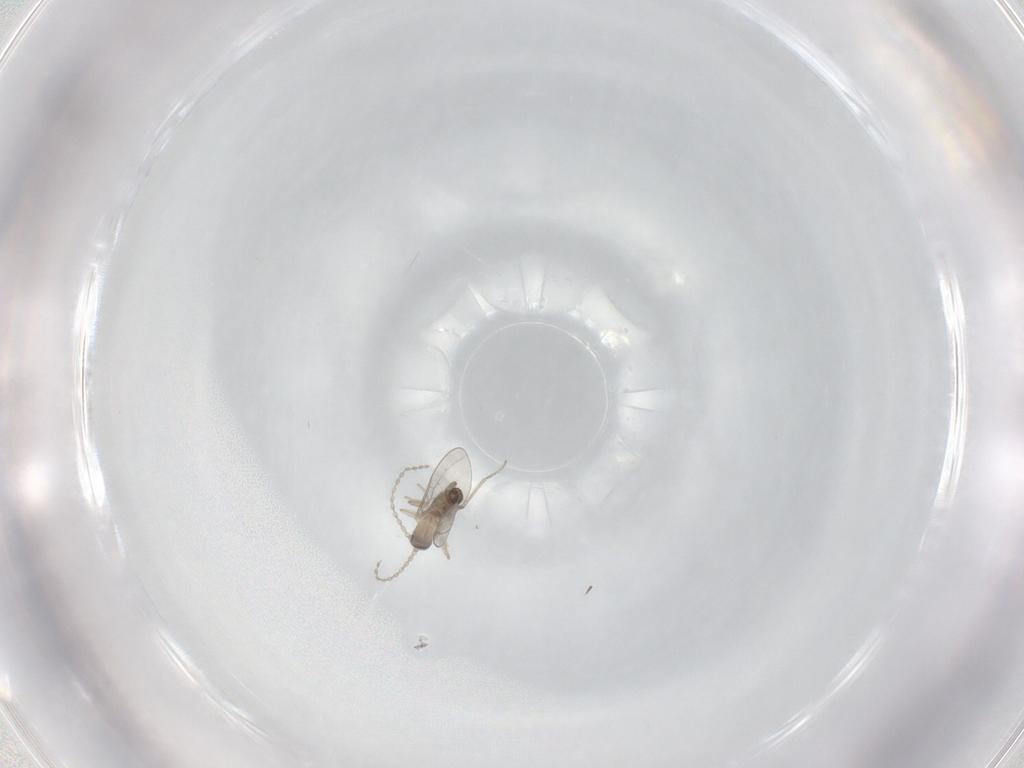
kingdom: Animalia
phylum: Arthropoda
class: Insecta
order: Diptera
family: Cecidomyiidae
